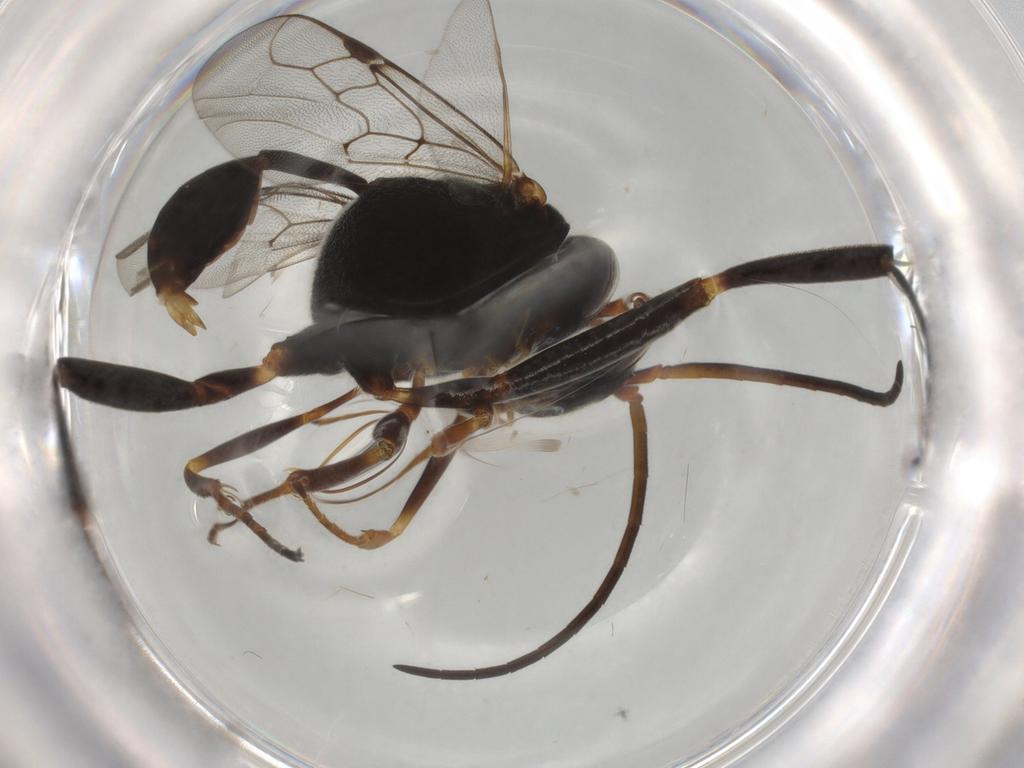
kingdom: Animalia
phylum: Arthropoda
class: Insecta
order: Hymenoptera
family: Evaniidae
